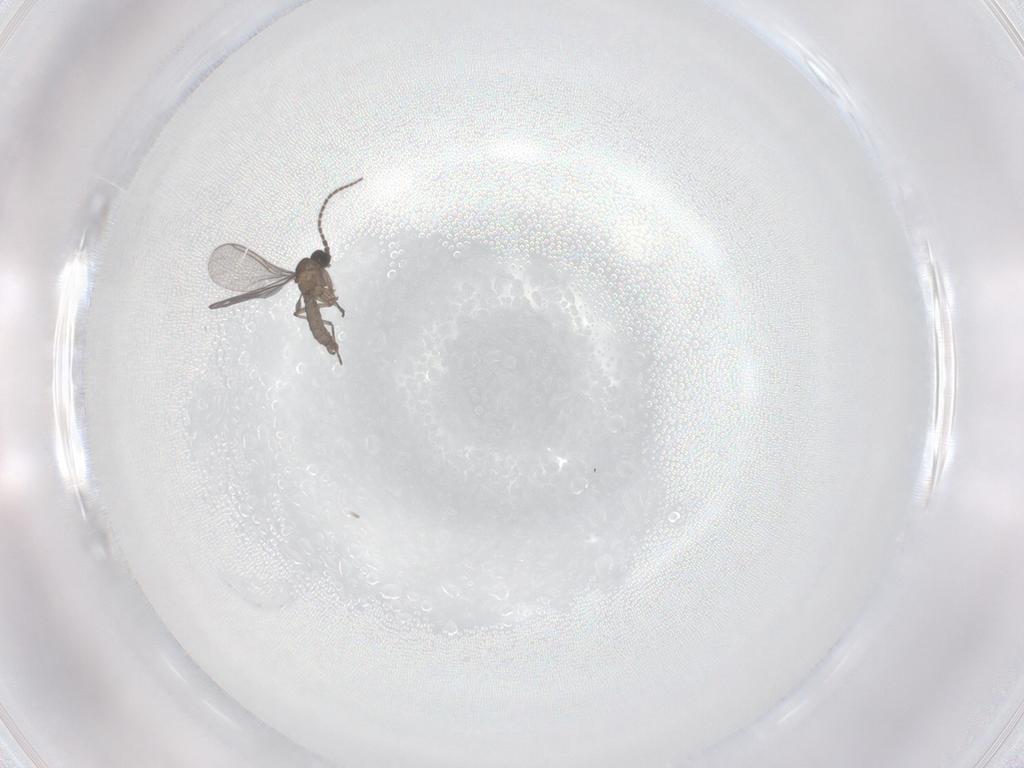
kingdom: Animalia
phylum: Arthropoda
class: Insecta
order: Diptera
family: Sciaridae
